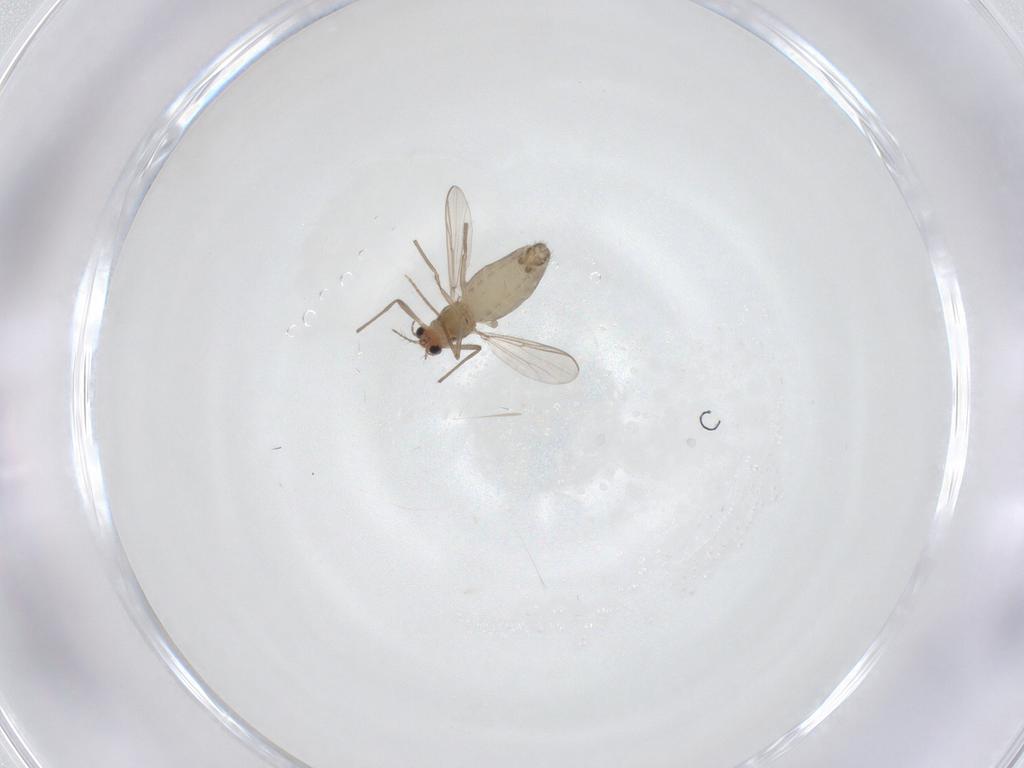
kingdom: Animalia
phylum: Arthropoda
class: Insecta
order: Diptera
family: Chironomidae
